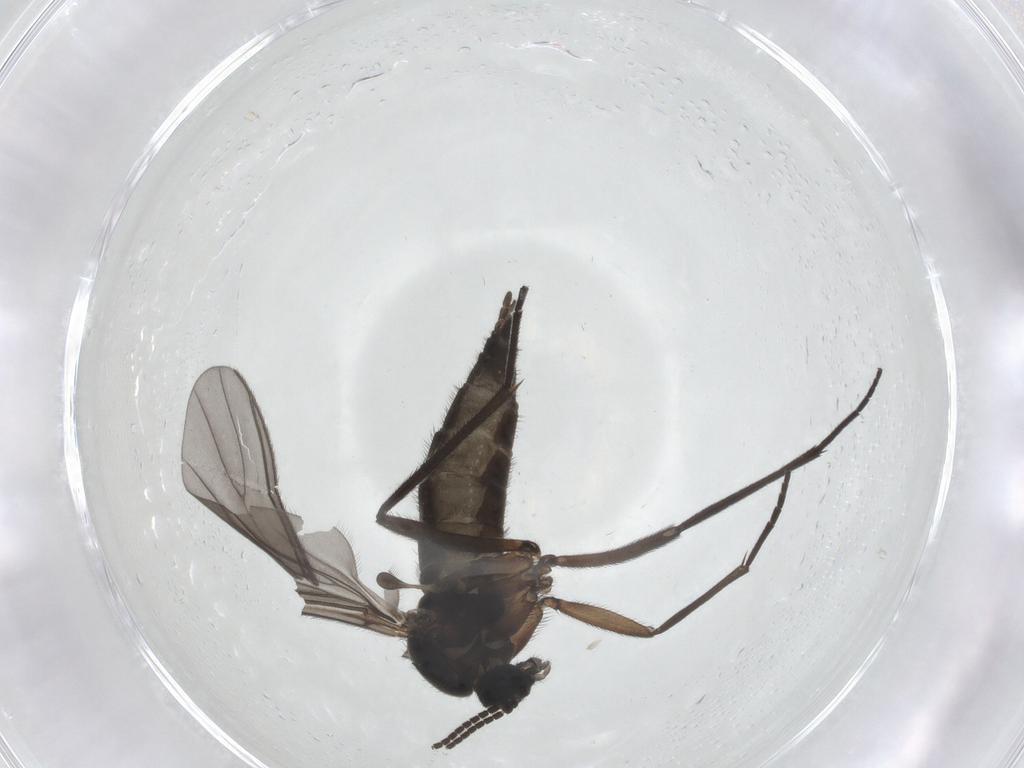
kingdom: Animalia
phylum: Arthropoda
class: Insecta
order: Diptera
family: Sciaridae
